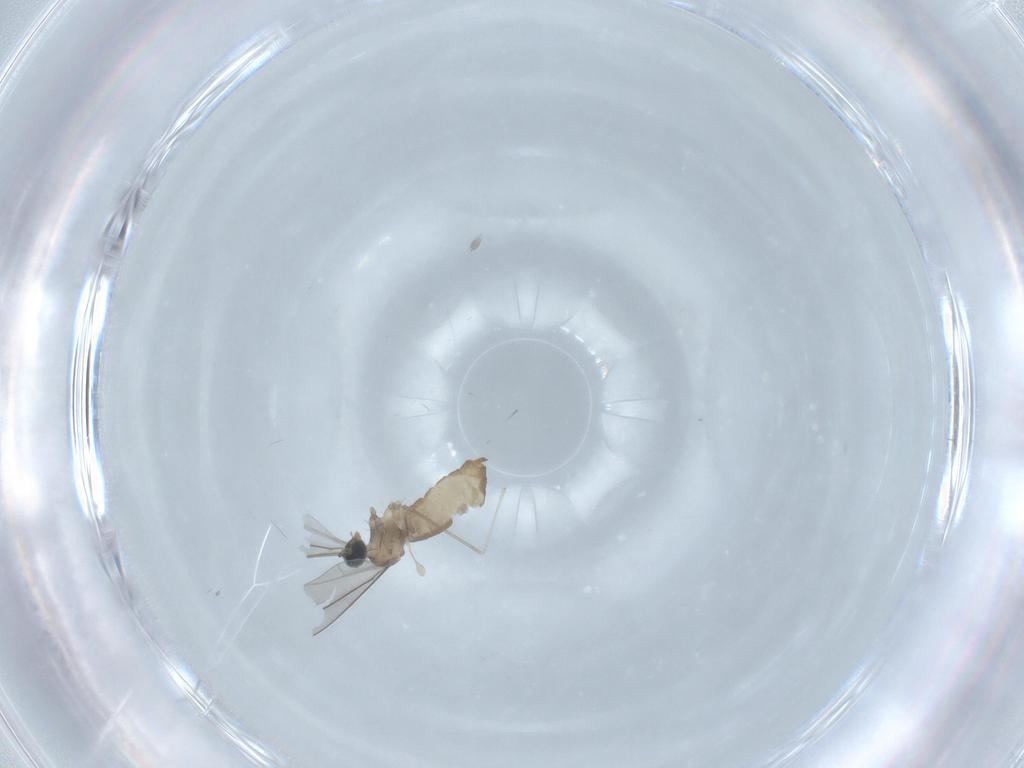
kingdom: Animalia
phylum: Arthropoda
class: Insecta
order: Diptera
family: Cecidomyiidae
